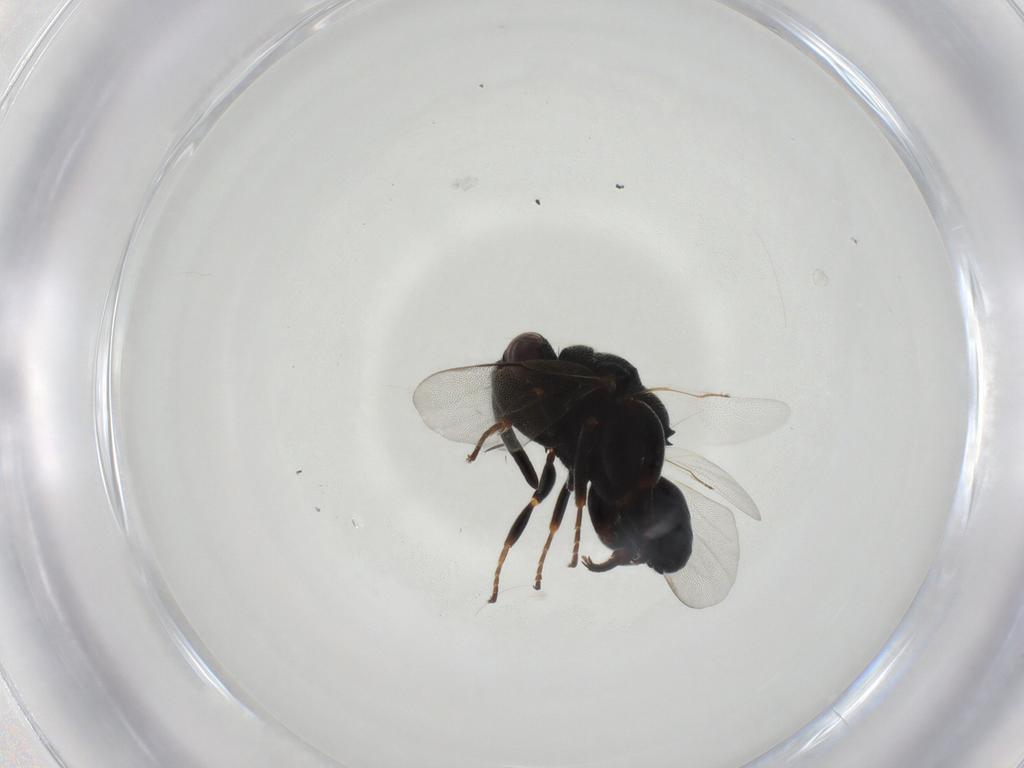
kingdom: Animalia
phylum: Arthropoda
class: Insecta
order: Hymenoptera
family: Chalcididae
